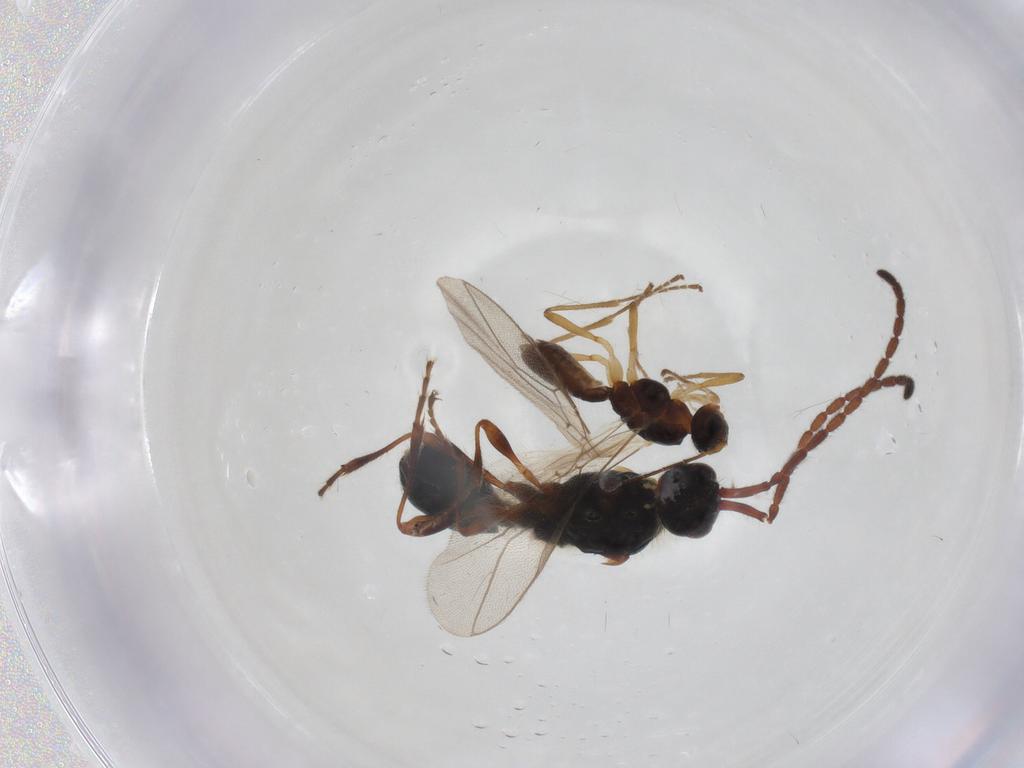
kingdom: Animalia
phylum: Arthropoda
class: Insecta
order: Hymenoptera
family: Diapriidae
